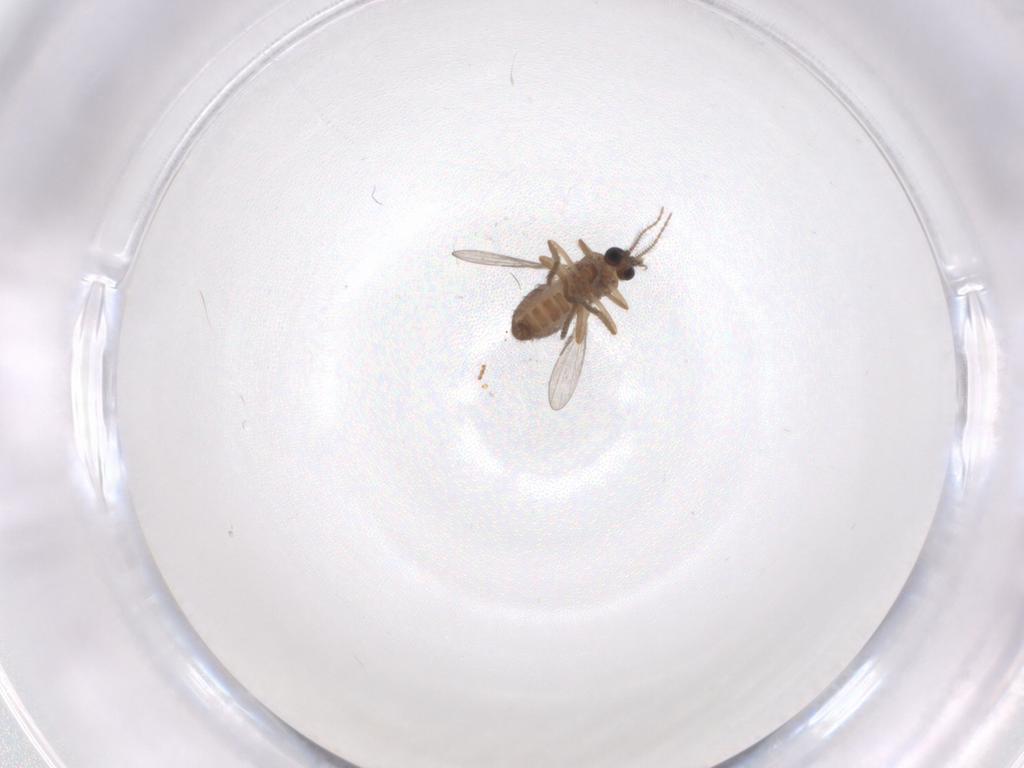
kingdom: Animalia
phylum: Arthropoda
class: Insecta
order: Diptera
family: Ceratopogonidae
